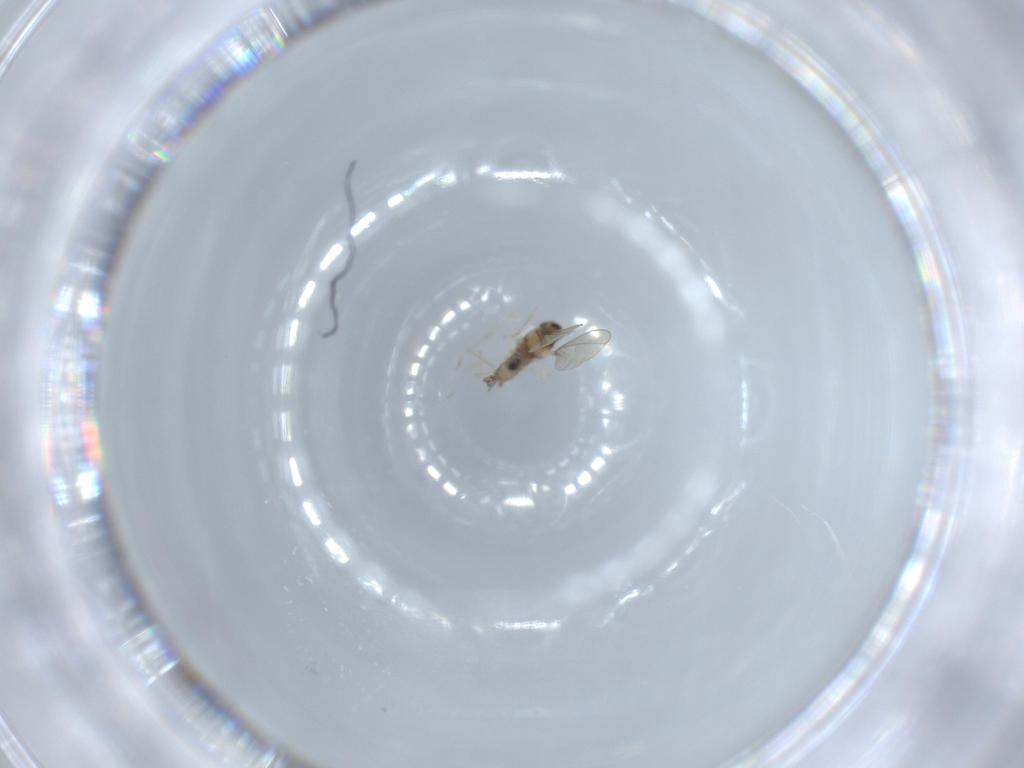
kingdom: Animalia
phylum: Arthropoda
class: Insecta
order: Diptera
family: Cecidomyiidae
